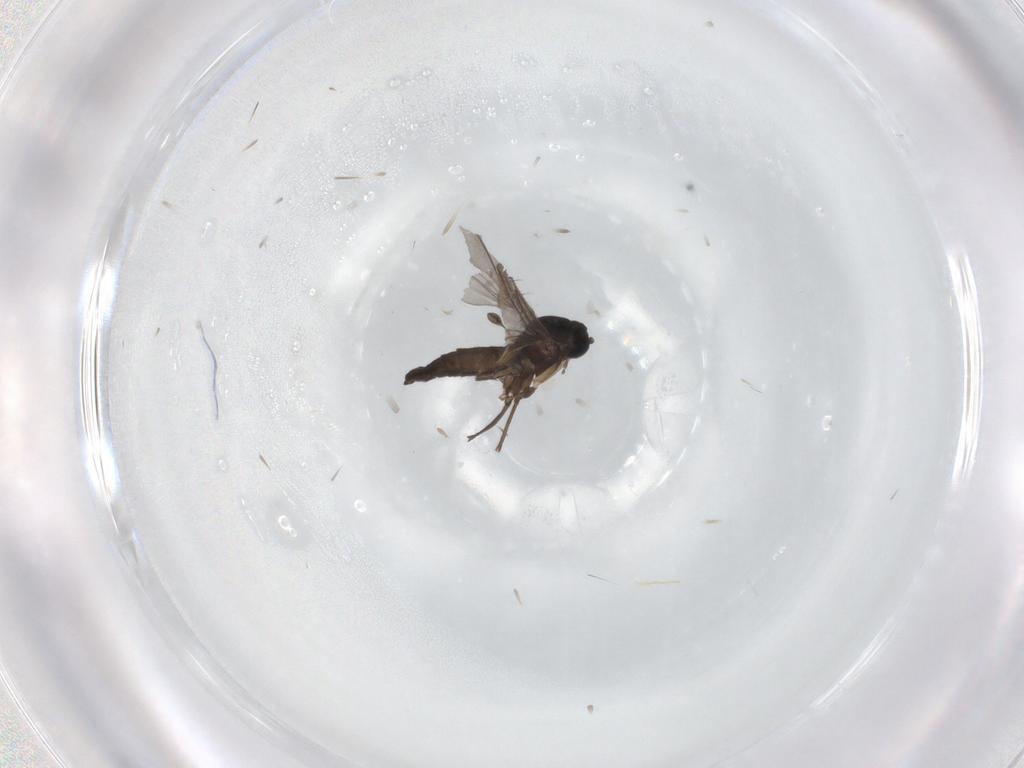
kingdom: Animalia
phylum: Arthropoda
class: Insecta
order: Diptera
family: Sciaridae
